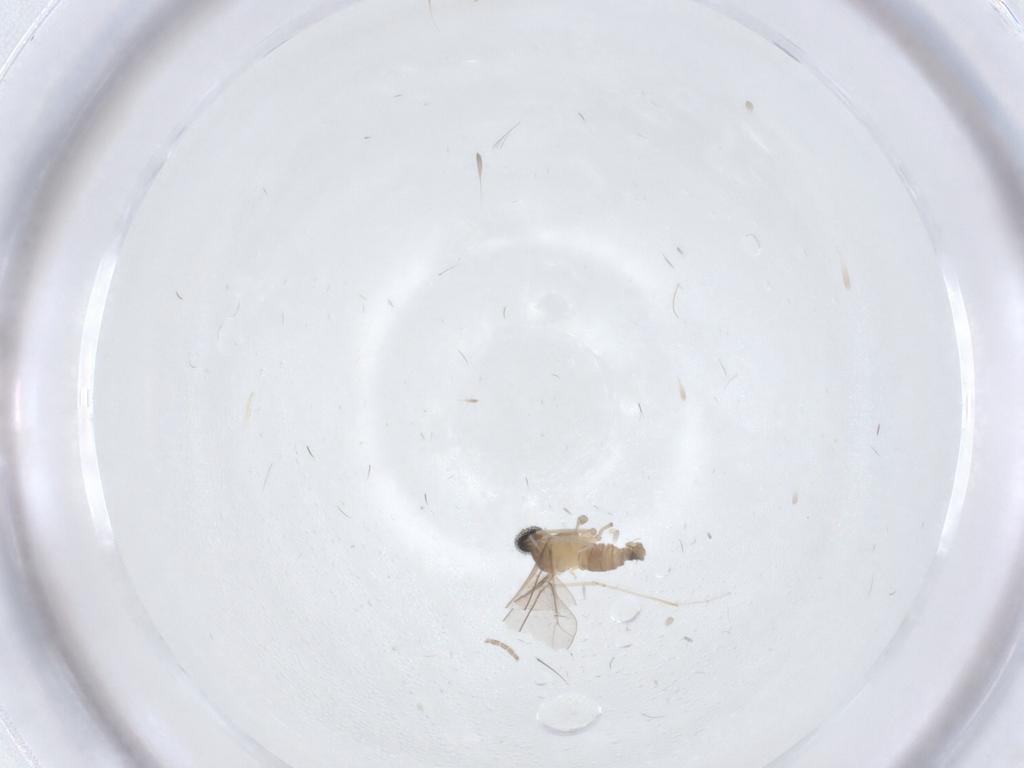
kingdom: Animalia
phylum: Arthropoda
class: Insecta
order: Diptera
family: Cecidomyiidae
